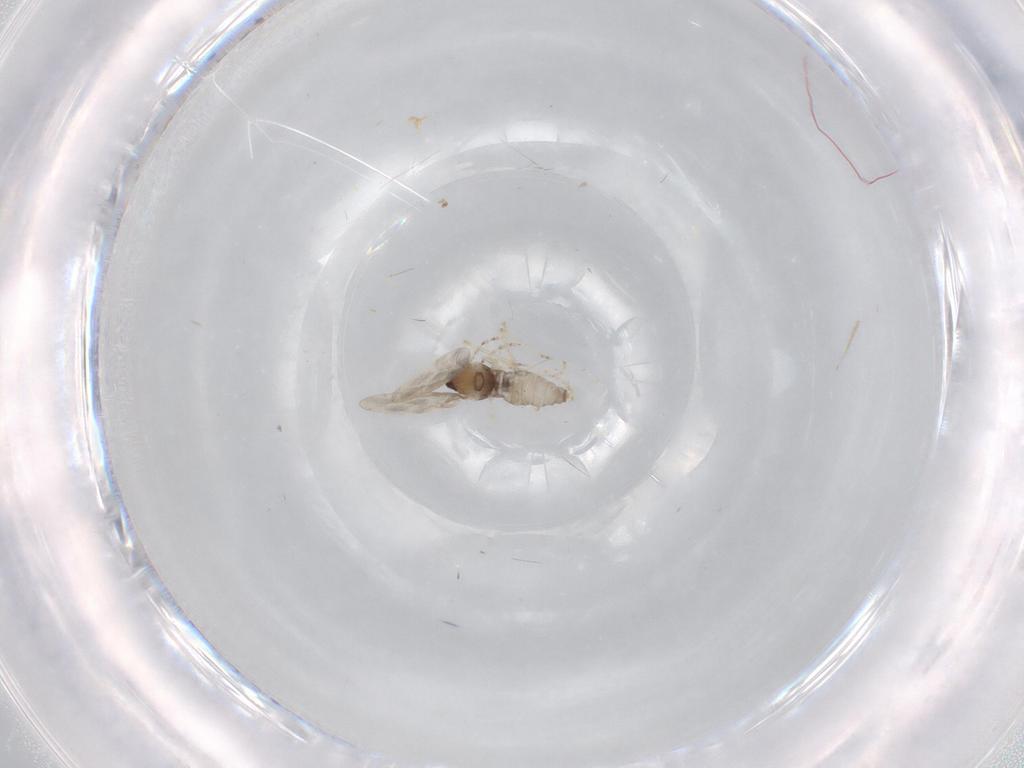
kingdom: Animalia
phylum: Arthropoda
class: Insecta
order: Diptera
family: Cecidomyiidae
